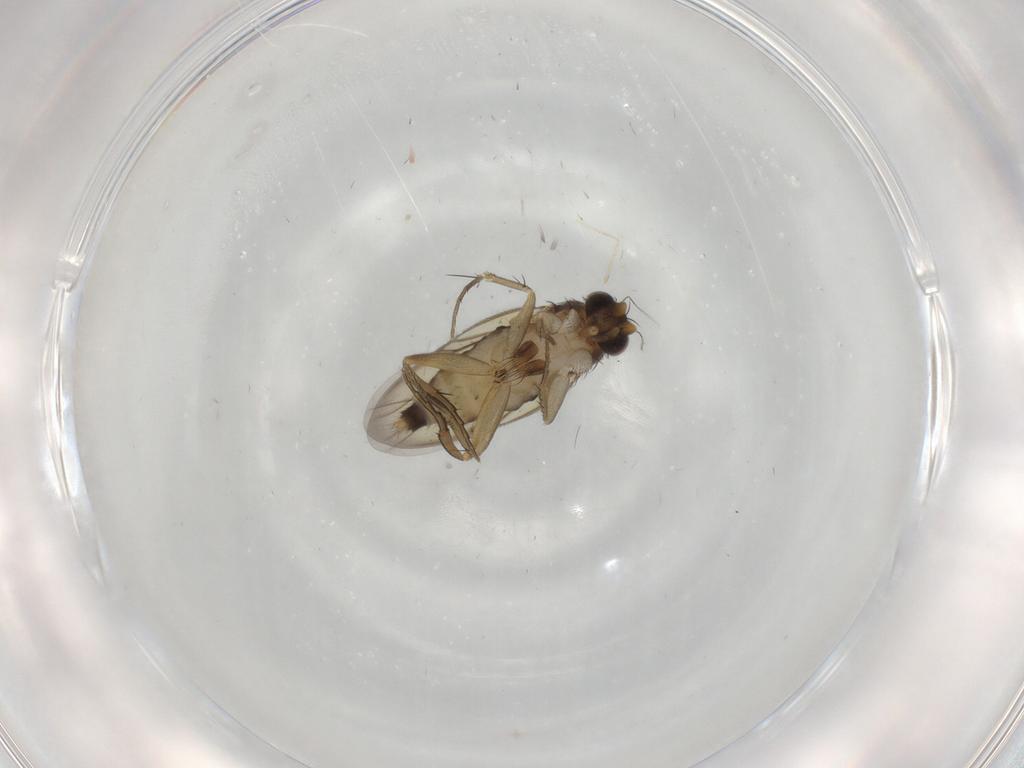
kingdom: Animalia
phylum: Arthropoda
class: Insecta
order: Diptera
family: Psychodidae
